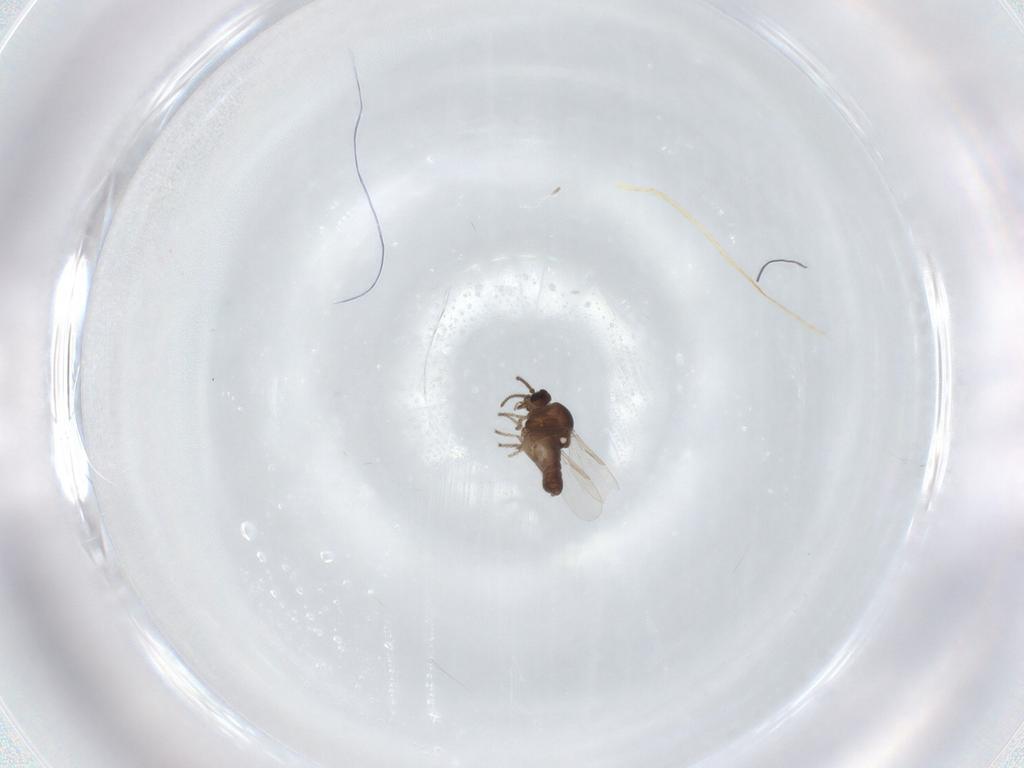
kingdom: Animalia
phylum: Arthropoda
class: Insecta
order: Diptera
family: Ceratopogonidae
